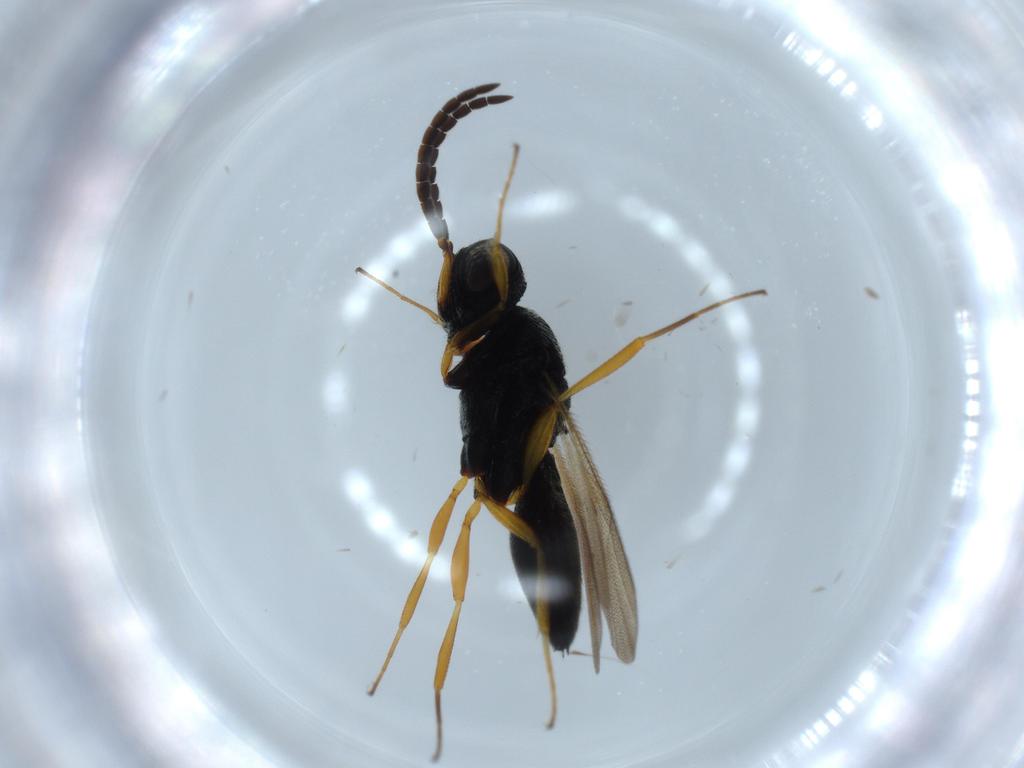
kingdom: Animalia
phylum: Arthropoda
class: Insecta
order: Hymenoptera
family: Scelionidae
